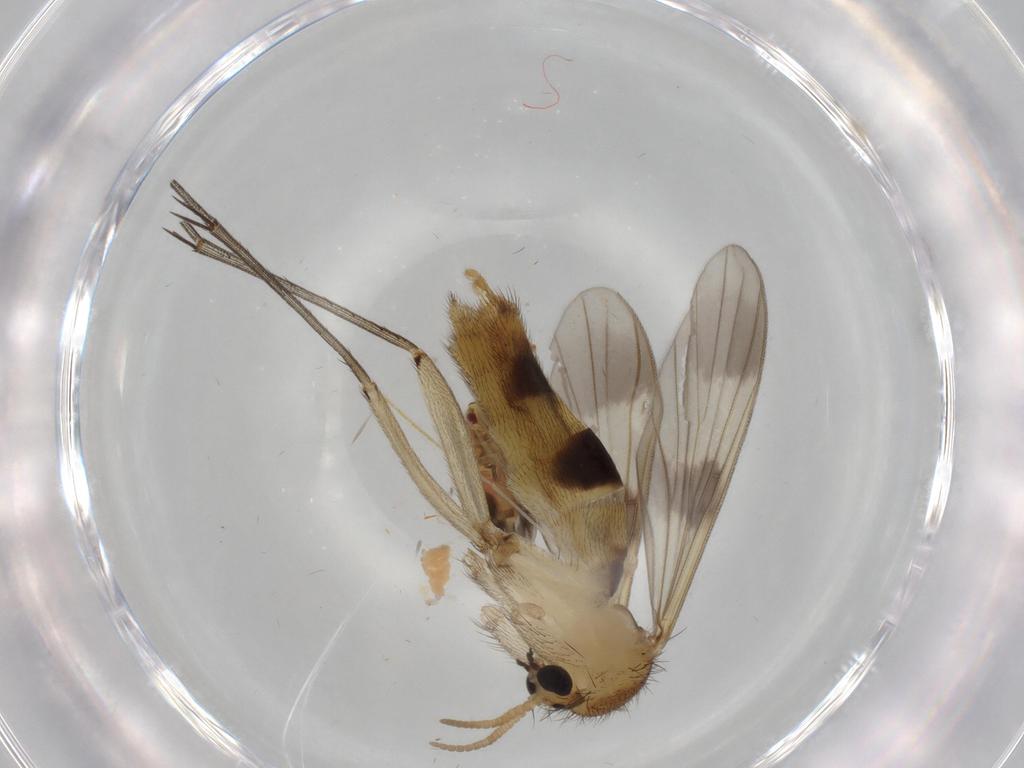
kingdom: Animalia
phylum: Arthropoda
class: Insecta
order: Diptera
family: Mycetophilidae
